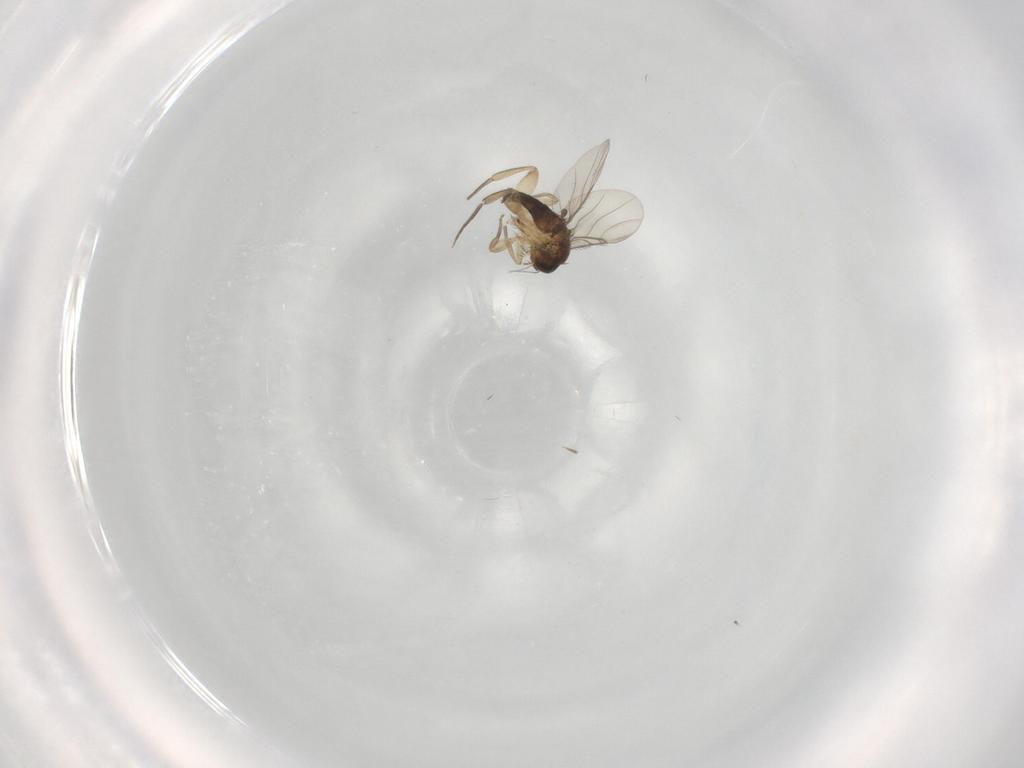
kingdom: Animalia
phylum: Arthropoda
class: Insecta
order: Diptera
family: Phoridae
